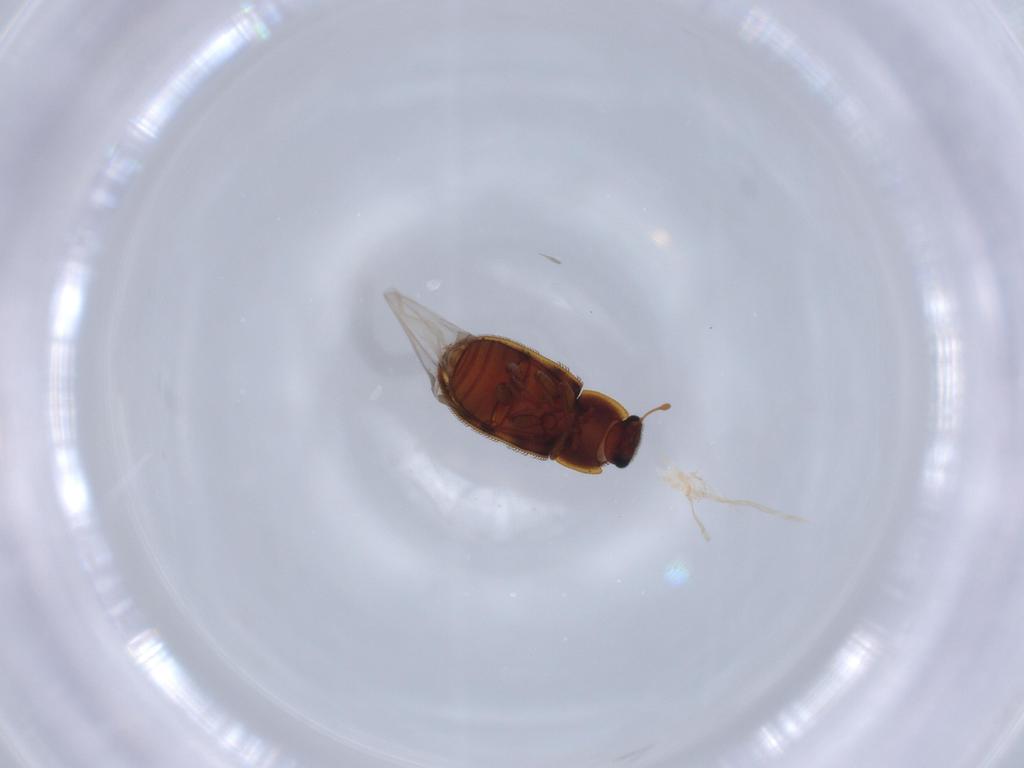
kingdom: Animalia
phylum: Arthropoda
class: Insecta
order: Coleoptera
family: Zopheridae
